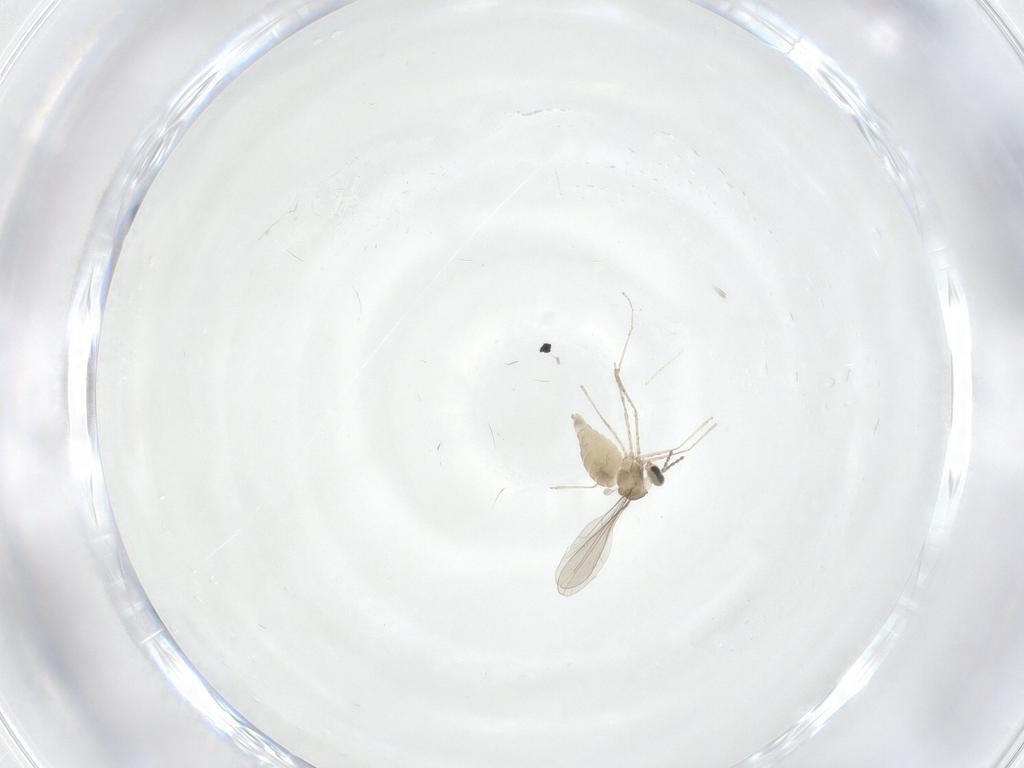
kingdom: Animalia
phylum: Arthropoda
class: Insecta
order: Diptera
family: Cecidomyiidae
